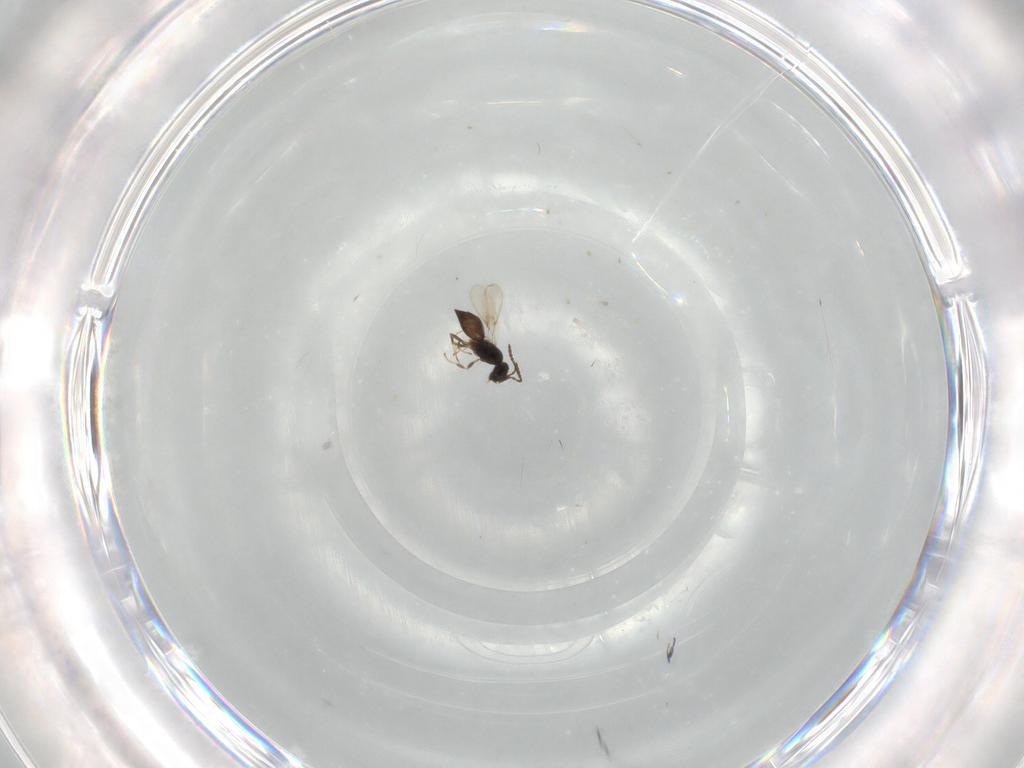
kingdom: Animalia
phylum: Arthropoda
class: Insecta
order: Hymenoptera
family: Scelionidae
